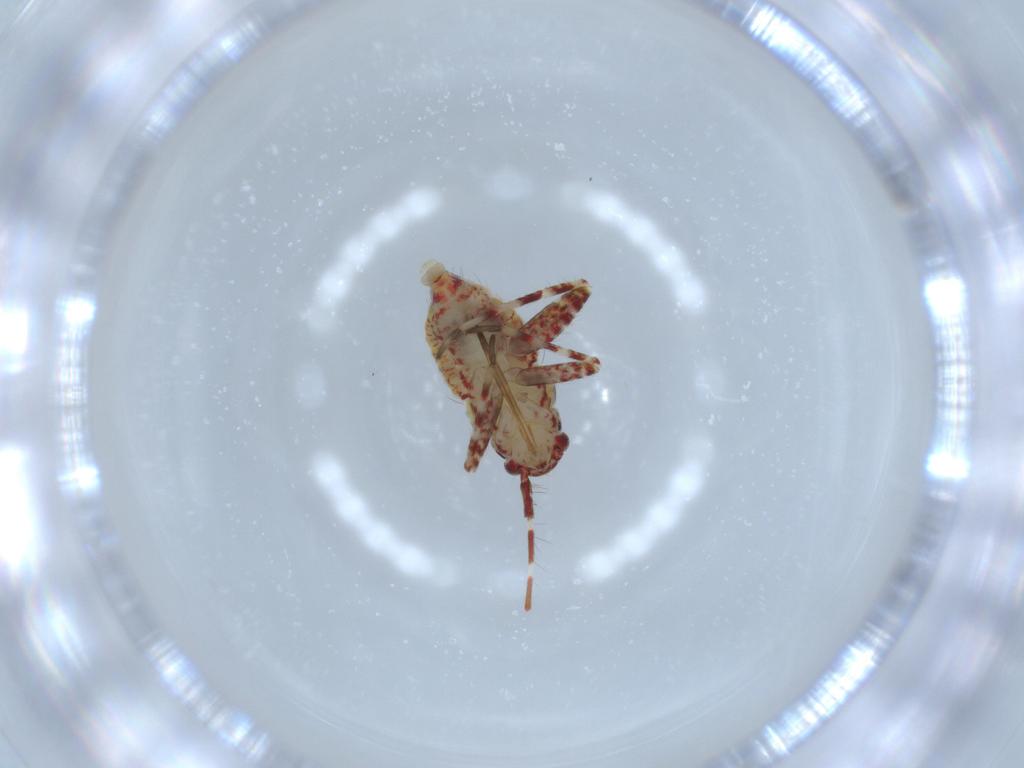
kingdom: Animalia
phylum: Arthropoda
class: Insecta
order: Hemiptera
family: Miridae
